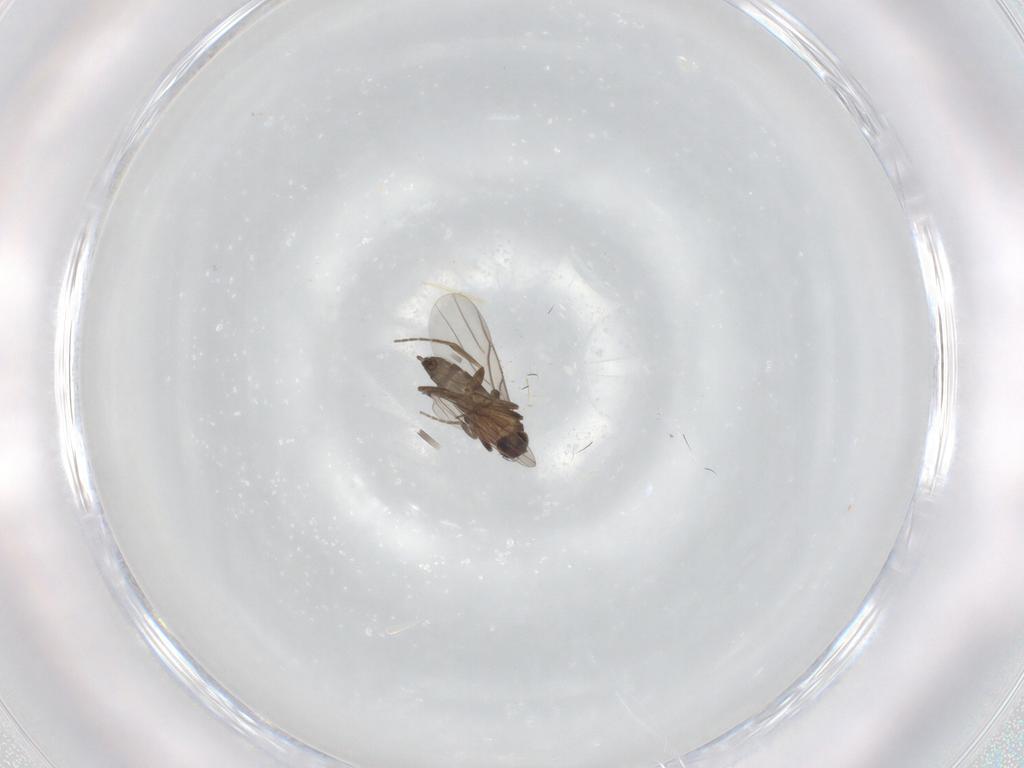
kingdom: Animalia
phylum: Arthropoda
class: Insecta
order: Diptera
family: Phoridae
